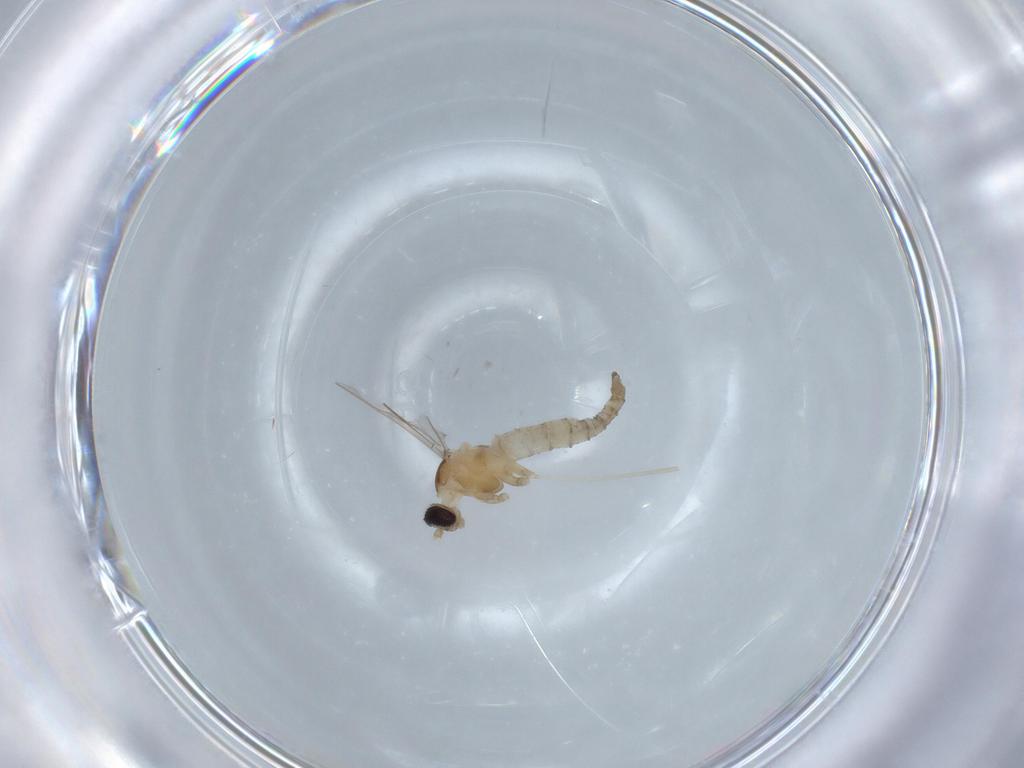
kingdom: Animalia
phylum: Arthropoda
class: Insecta
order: Diptera
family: Cecidomyiidae
